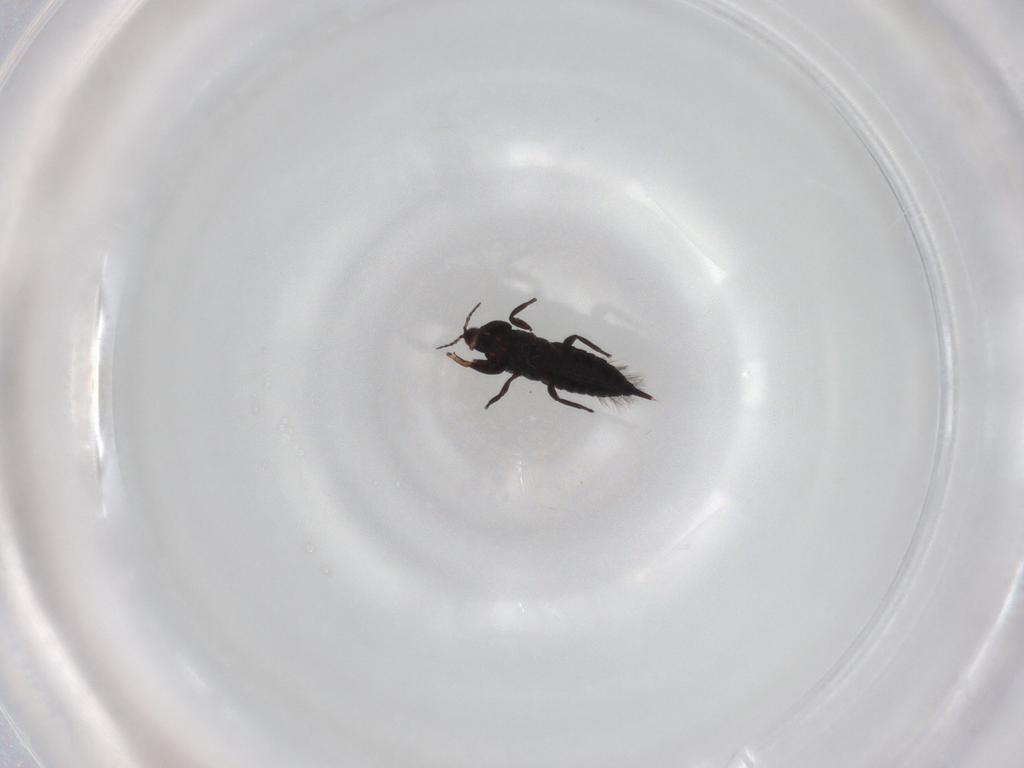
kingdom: Animalia
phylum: Arthropoda
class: Insecta
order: Thysanoptera
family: Phlaeothripidae
